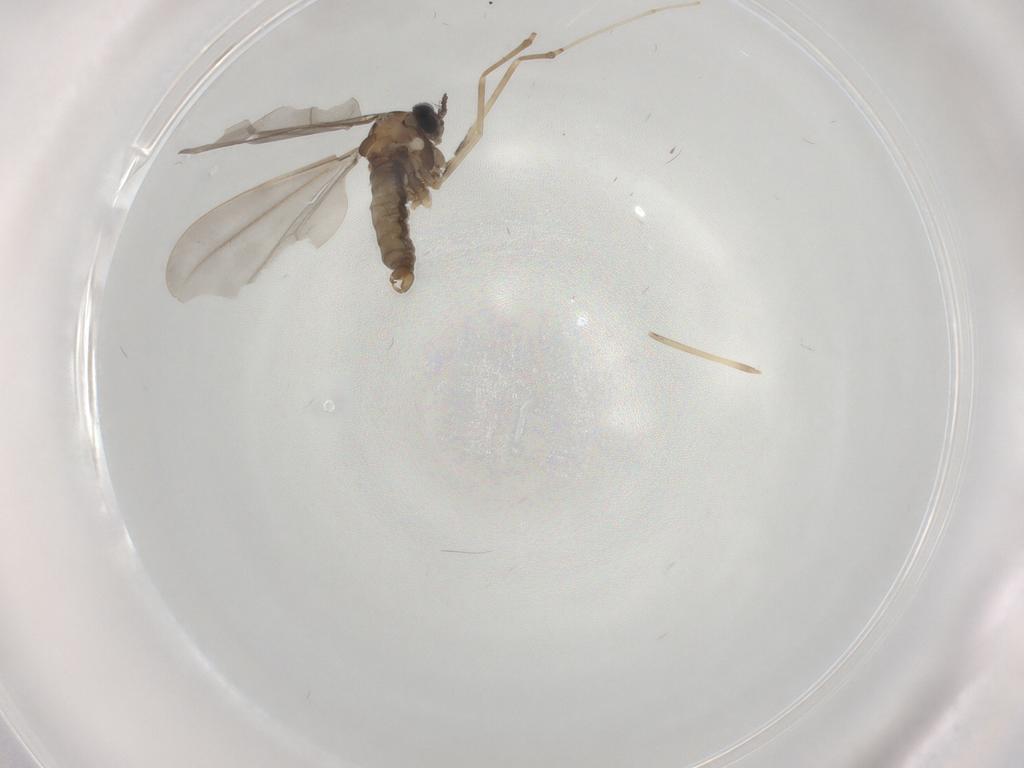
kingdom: Animalia
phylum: Arthropoda
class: Insecta
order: Diptera
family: Cecidomyiidae
